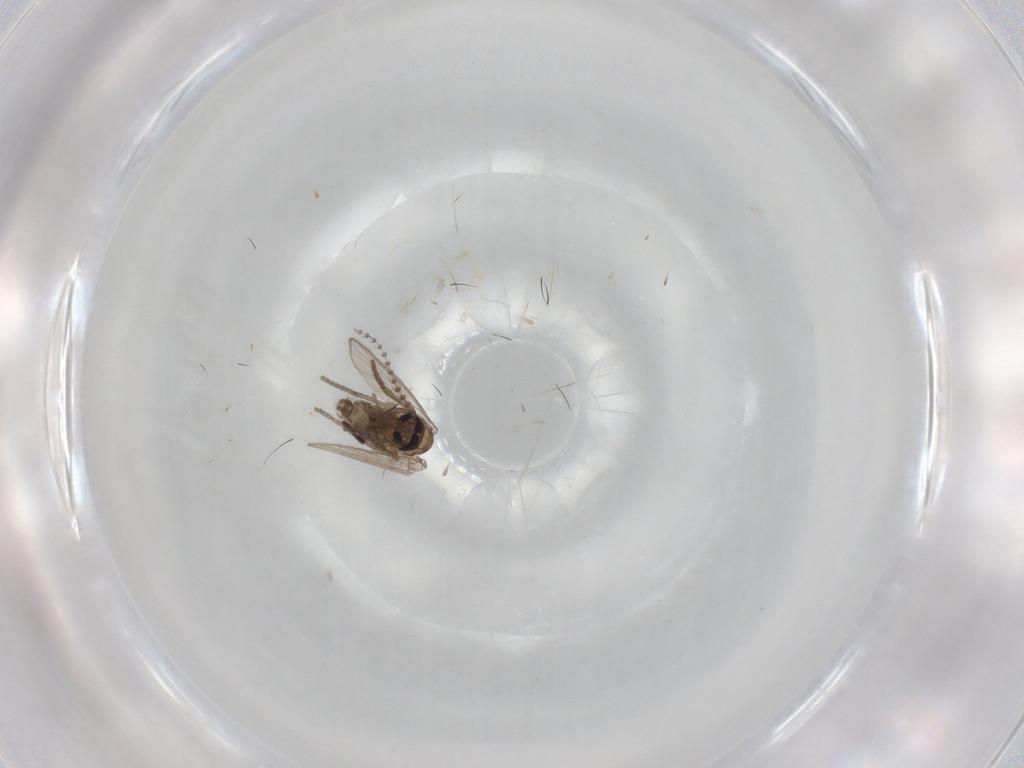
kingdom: Animalia
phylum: Arthropoda
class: Insecta
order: Diptera
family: Psychodidae
